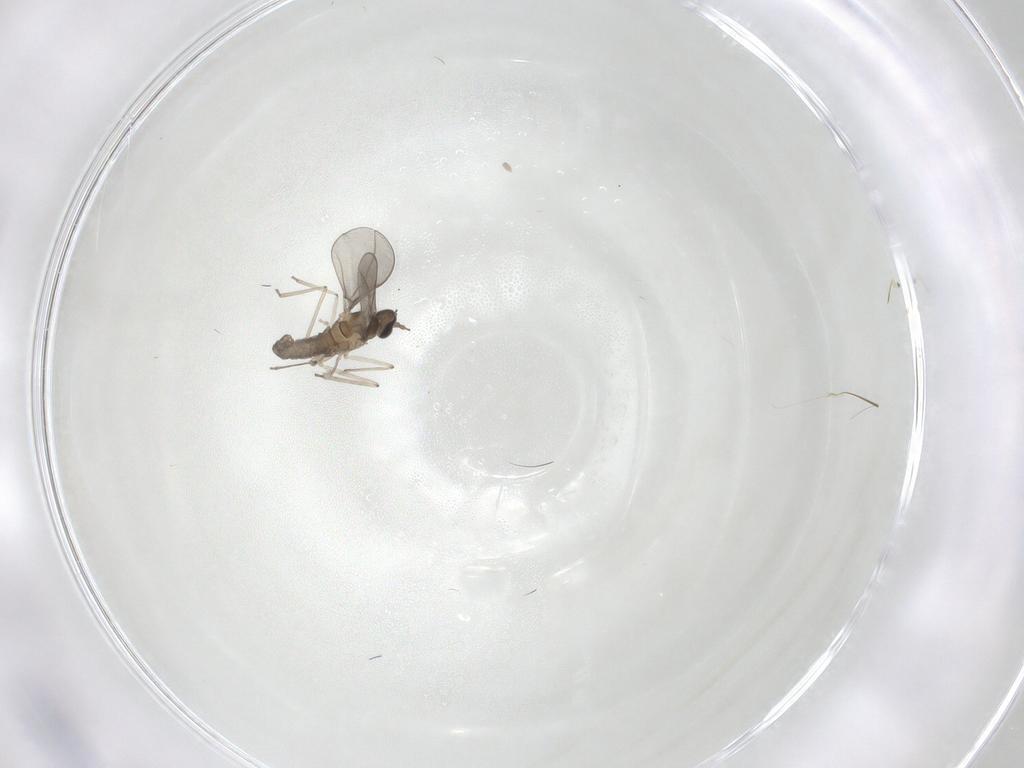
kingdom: Animalia
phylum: Arthropoda
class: Insecta
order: Diptera
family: Cecidomyiidae
